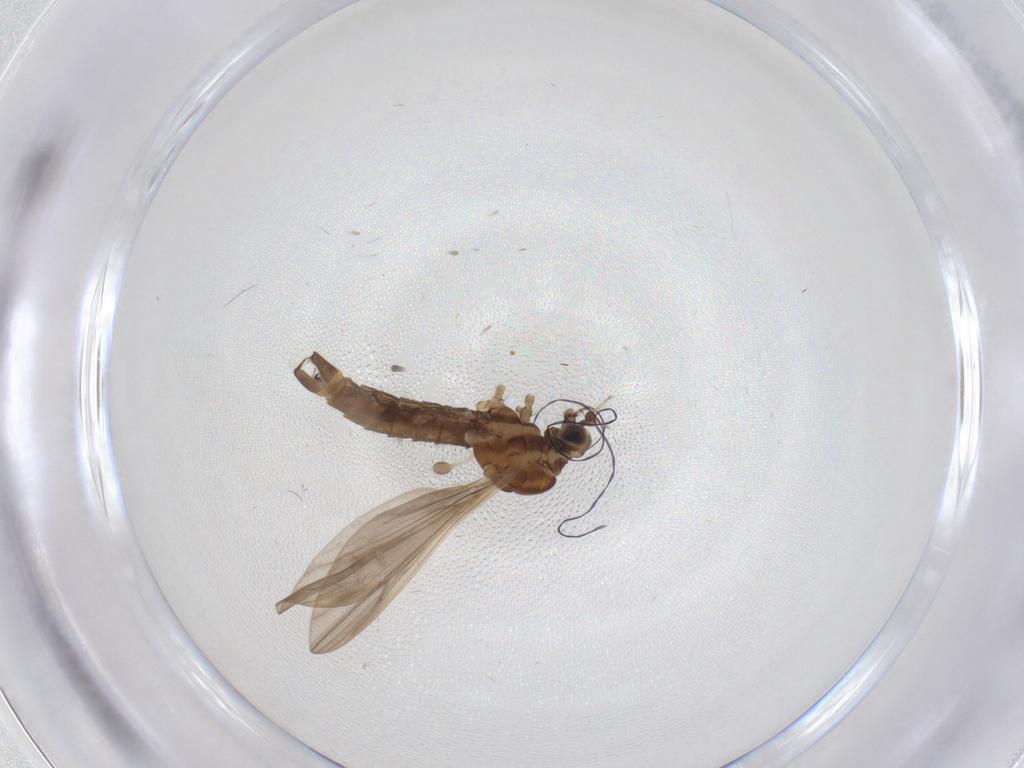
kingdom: Animalia
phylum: Arthropoda
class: Insecta
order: Diptera
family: Limoniidae
